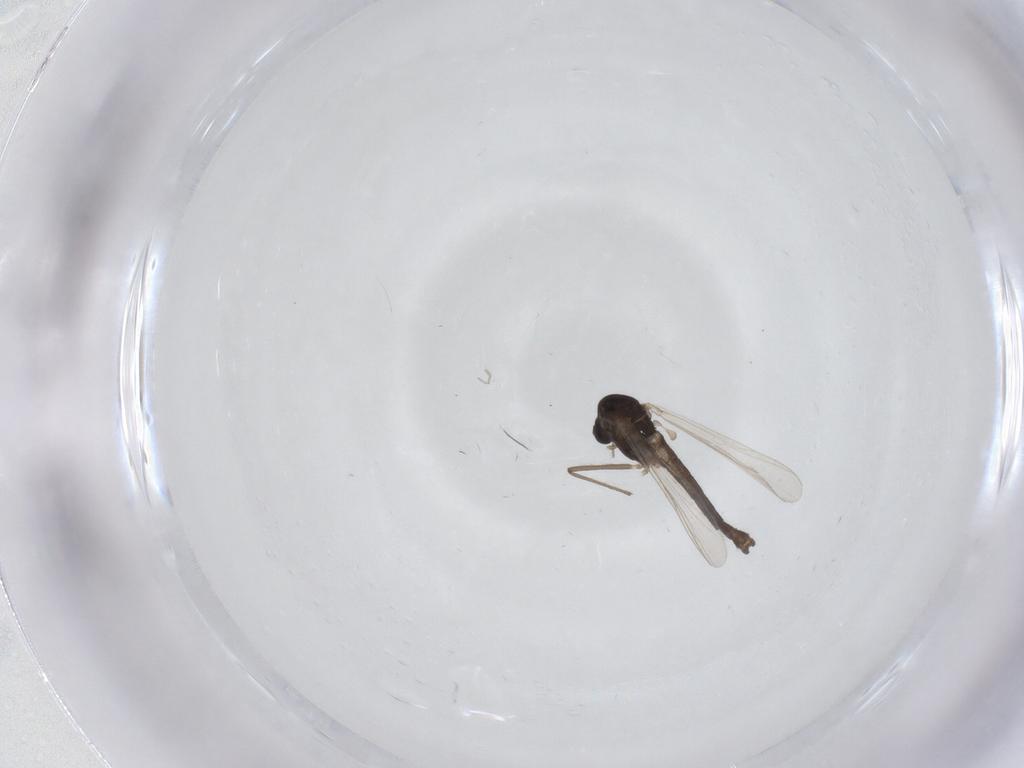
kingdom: Animalia
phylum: Arthropoda
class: Insecta
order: Diptera
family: Chironomidae
